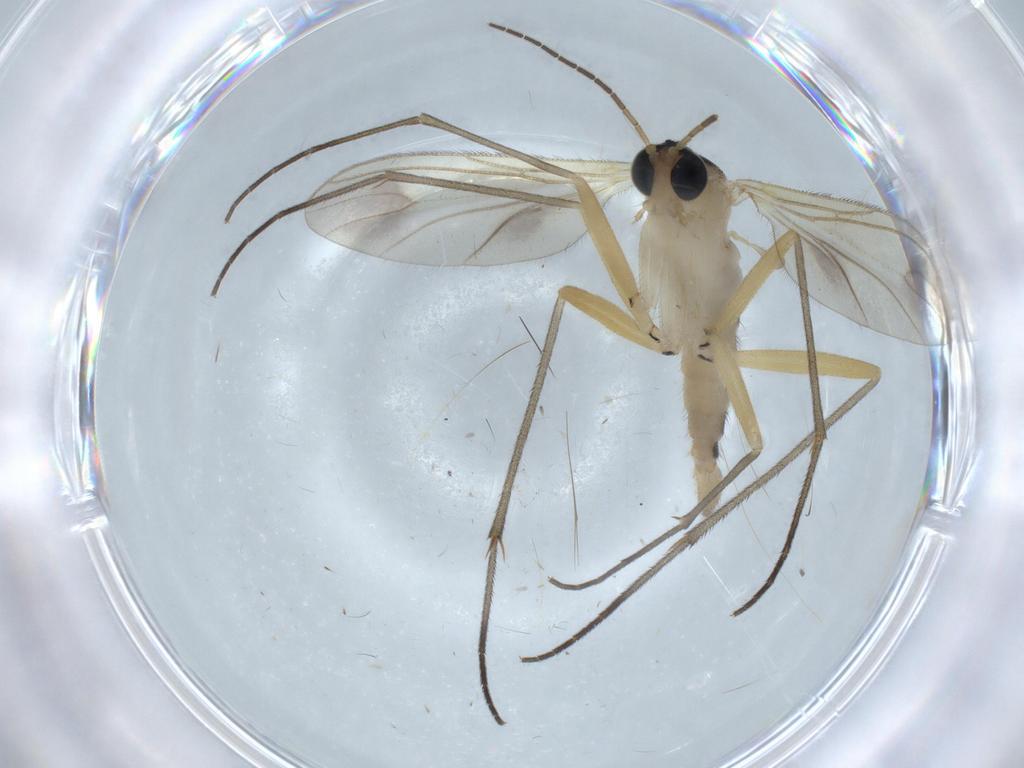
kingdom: Animalia
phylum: Arthropoda
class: Insecta
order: Diptera
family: Sciaridae
